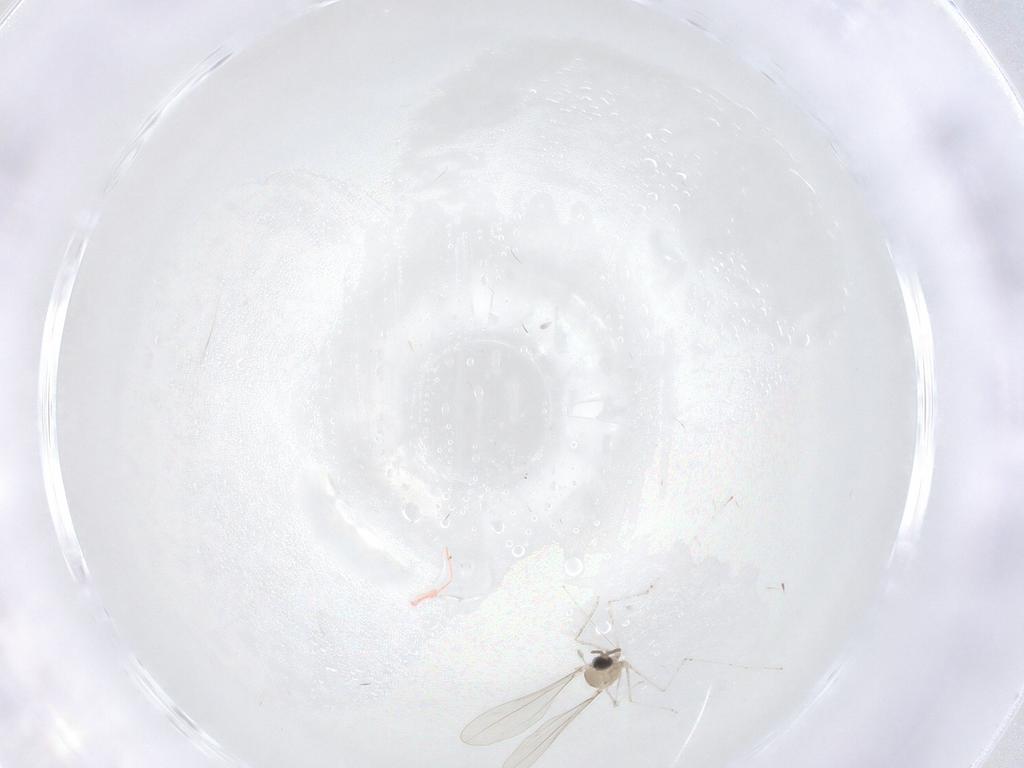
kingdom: Animalia
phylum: Arthropoda
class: Insecta
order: Diptera
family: Cecidomyiidae
